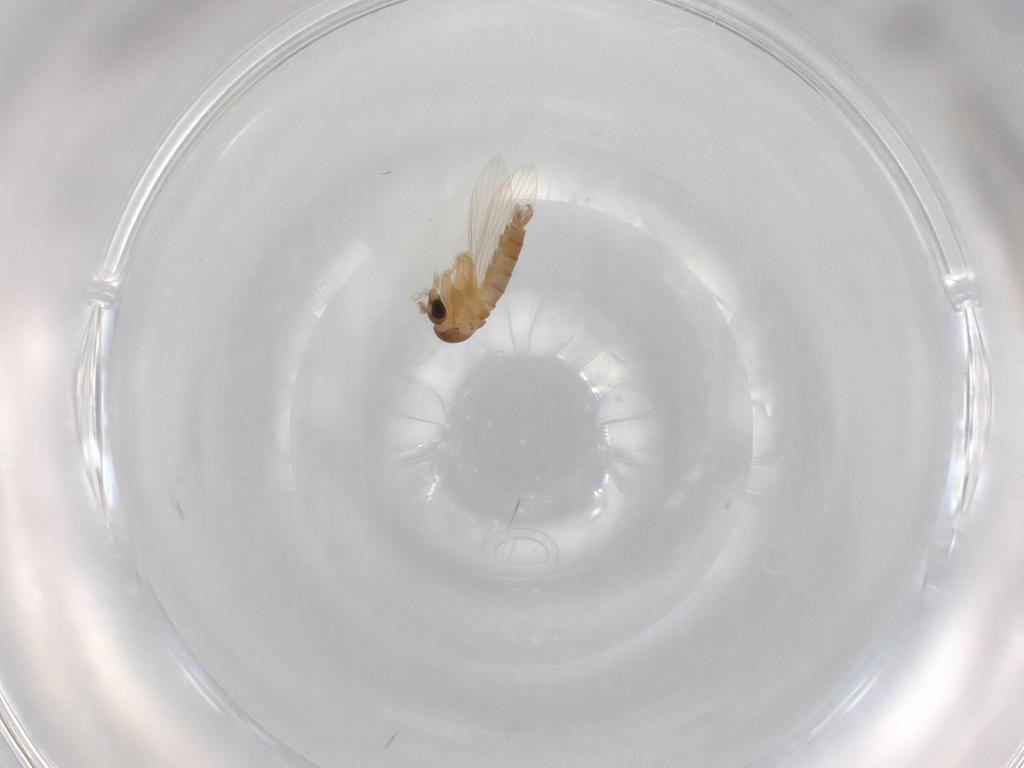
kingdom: Animalia
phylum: Arthropoda
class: Insecta
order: Diptera
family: Psychodidae
